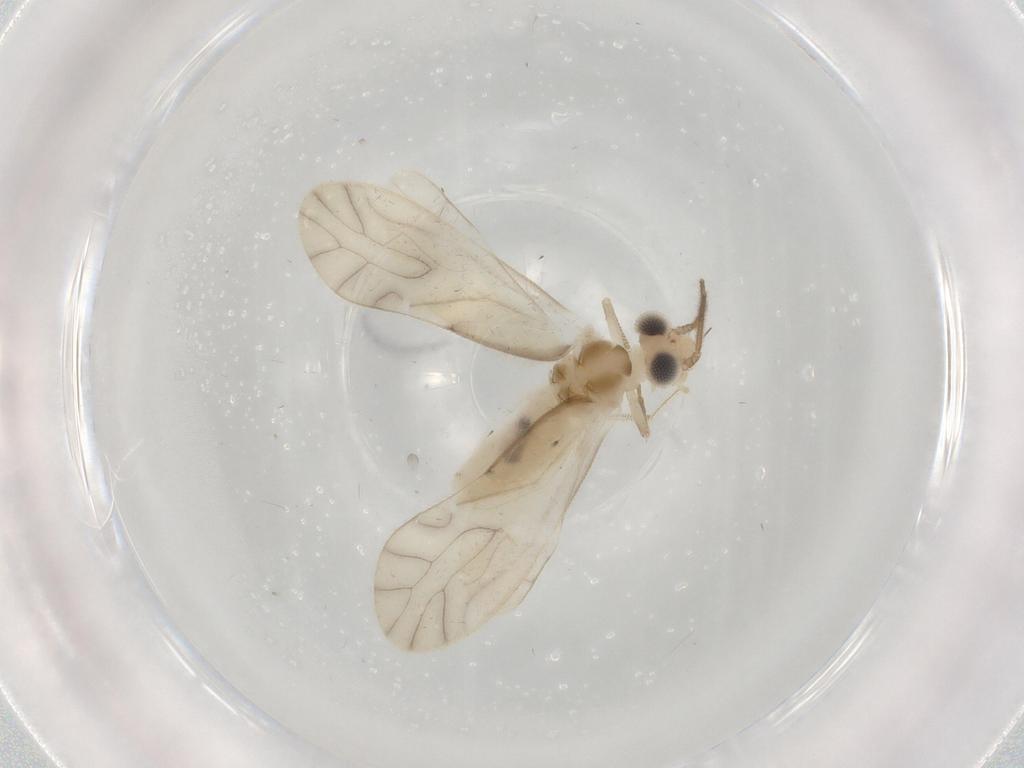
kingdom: Animalia
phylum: Arthropoda
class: Insecta
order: Psocodea
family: Caeciliusidae
